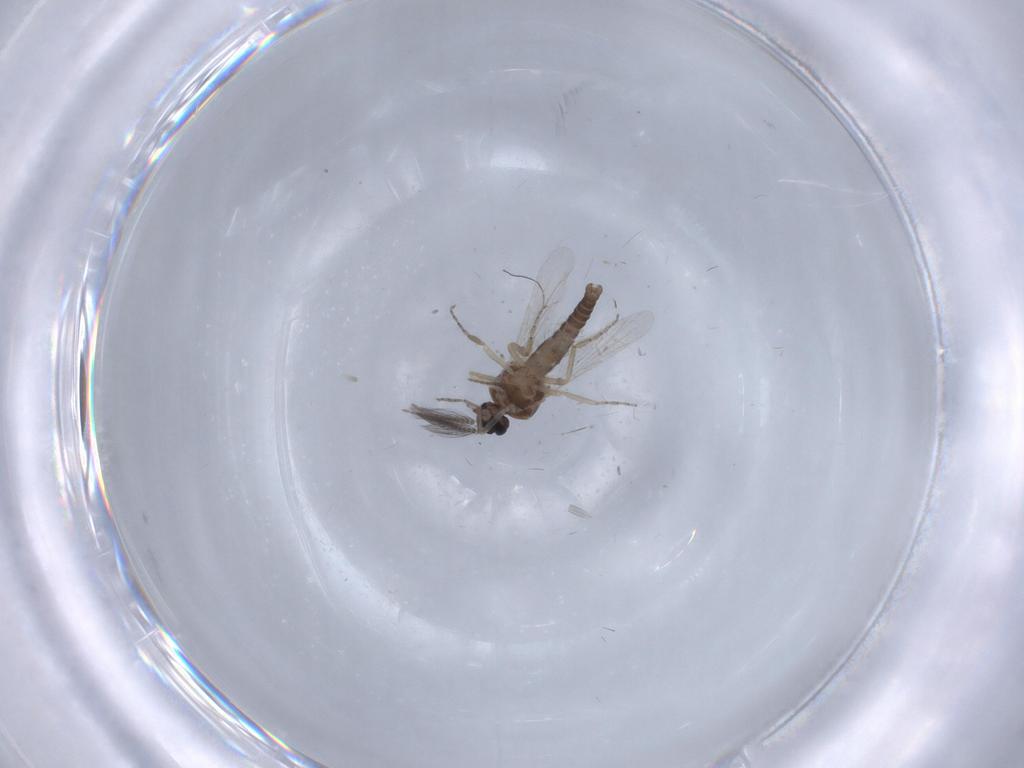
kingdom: Animalia
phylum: Arthropoda
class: Insecta
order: Diptera
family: Ceratopogonidae
